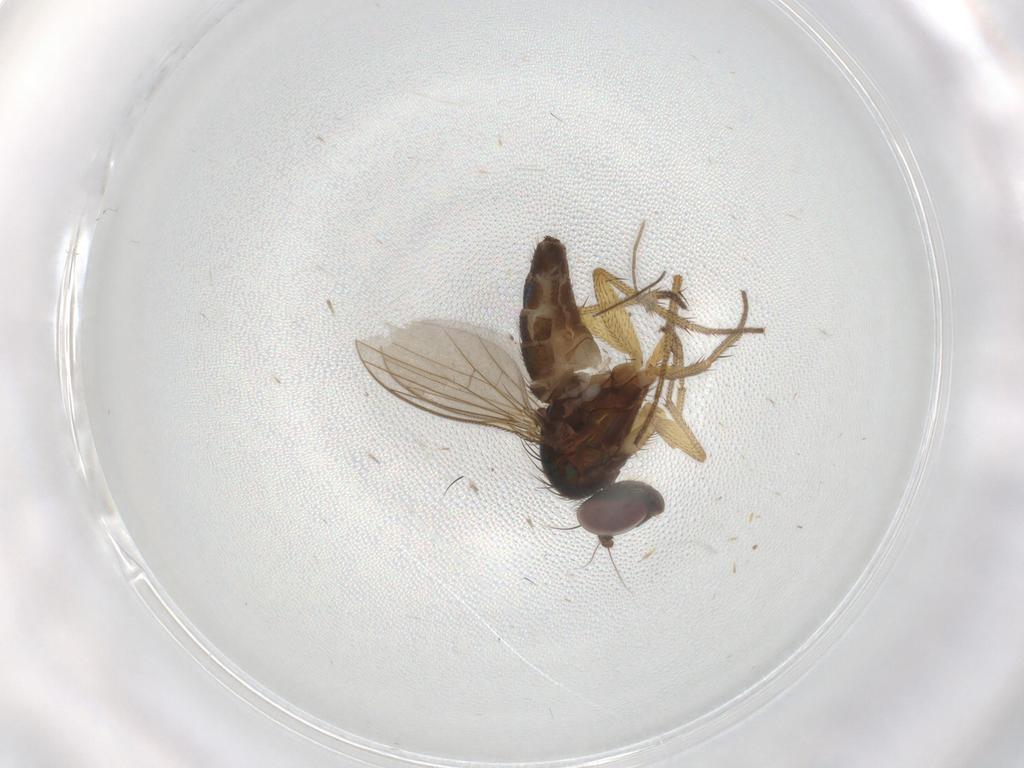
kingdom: Animalia
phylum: Arthropoda
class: Insecta
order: Diptera
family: Dolichopodidae
